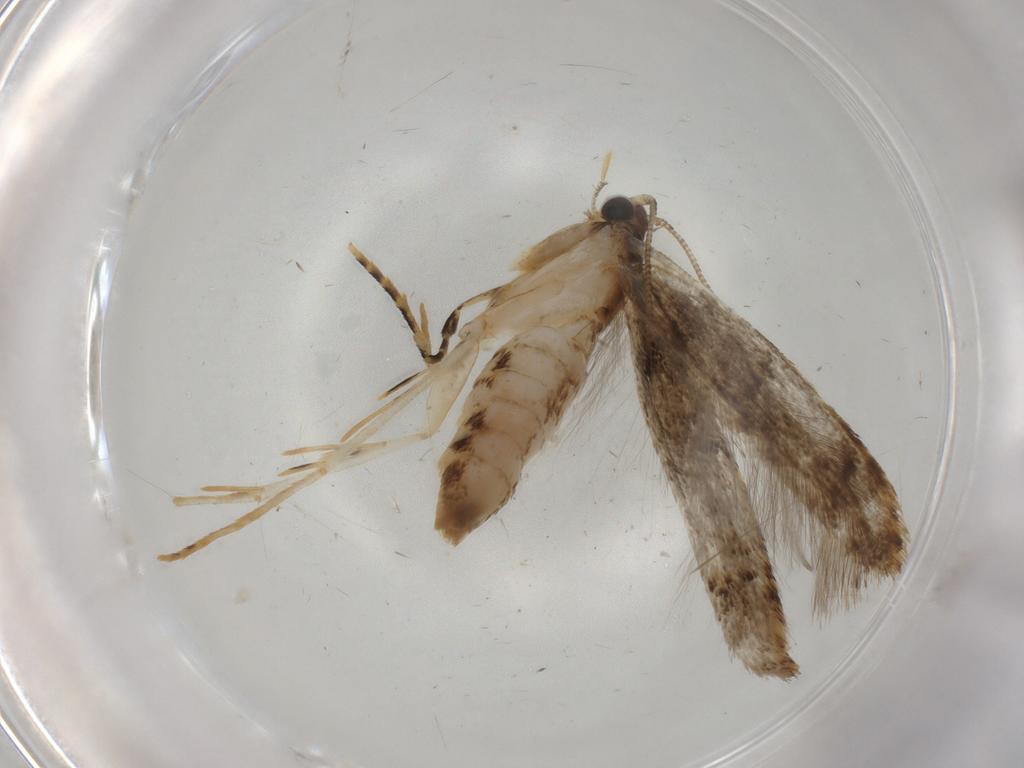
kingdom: Animalia
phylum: Arthropoda
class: Insecta
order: Lepidoptera
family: Tineidae
